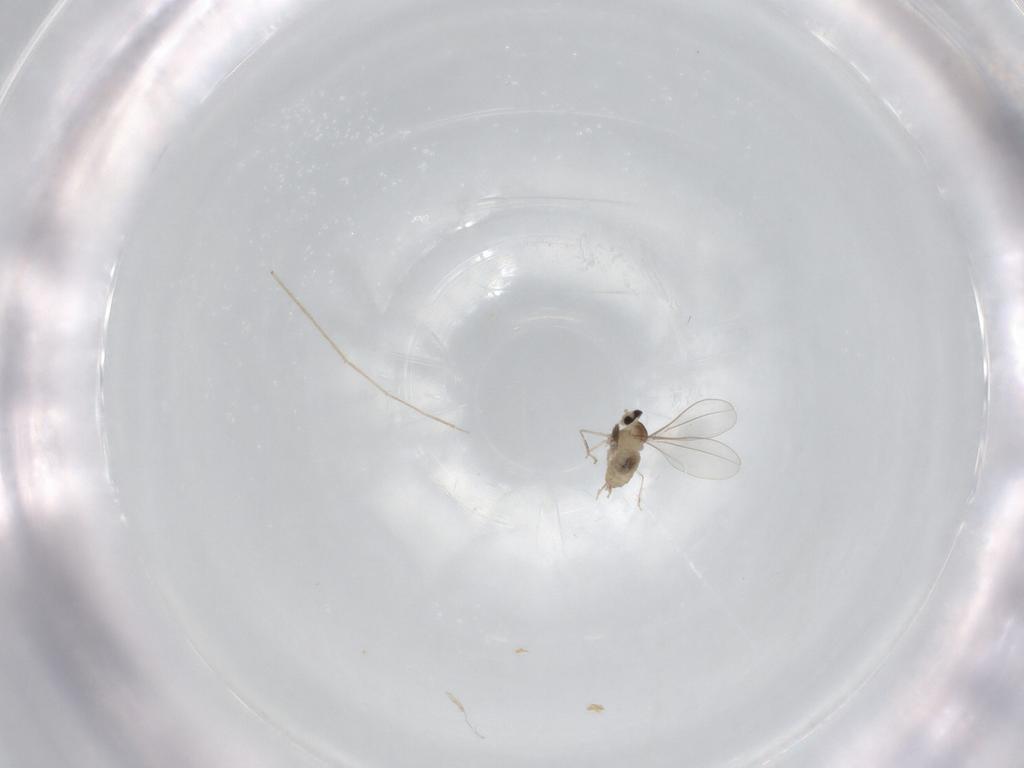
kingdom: Animalia
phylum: Arthropoda
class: Insecta
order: Diptera
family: Cecidomyiidae
